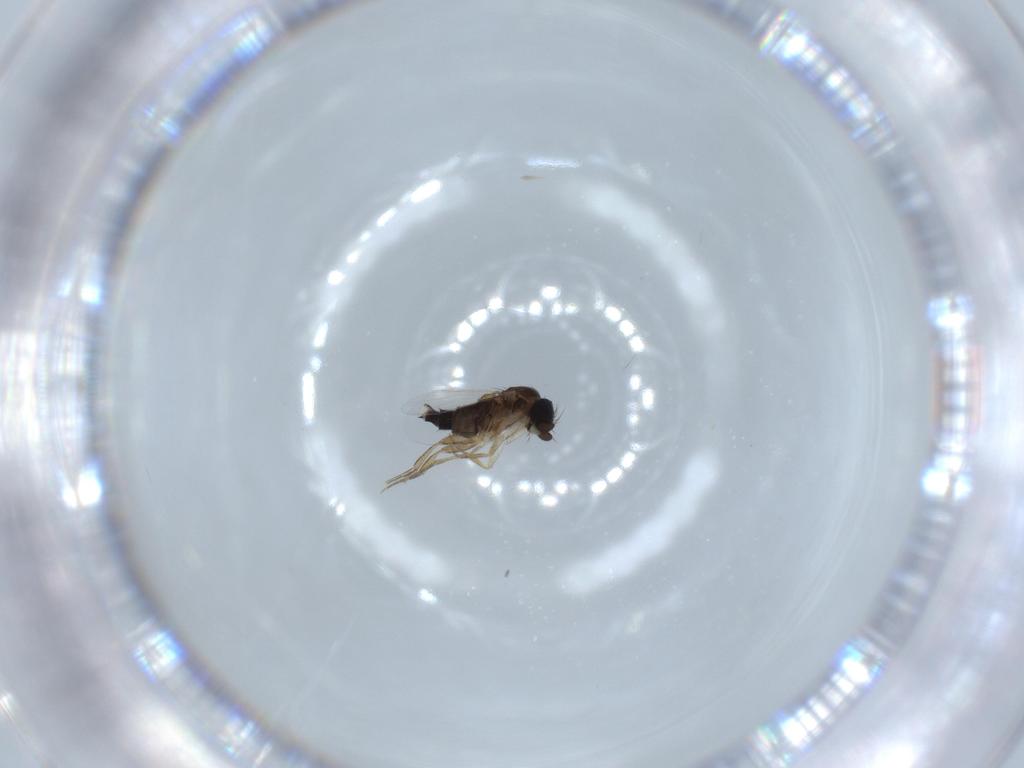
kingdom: Animalia
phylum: Arthropoda
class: Insecta
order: Diptera
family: Phoridae
